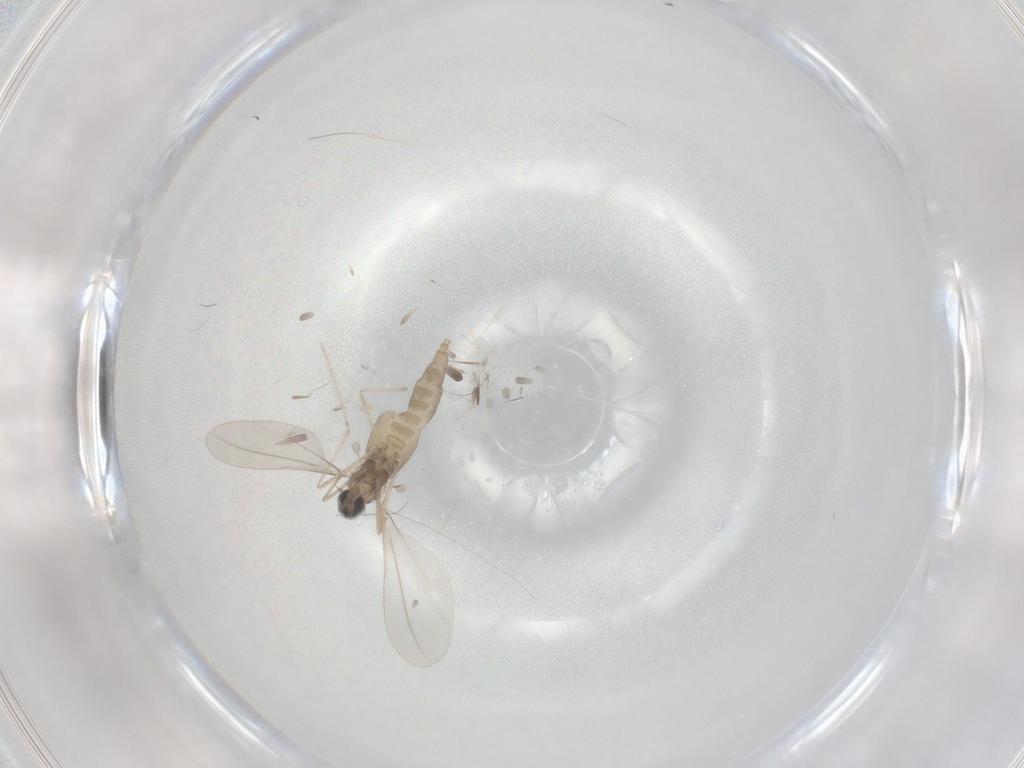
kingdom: Animalia
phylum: Arthropoda
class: Insecta
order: Diptera
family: Cecidomyiidae
